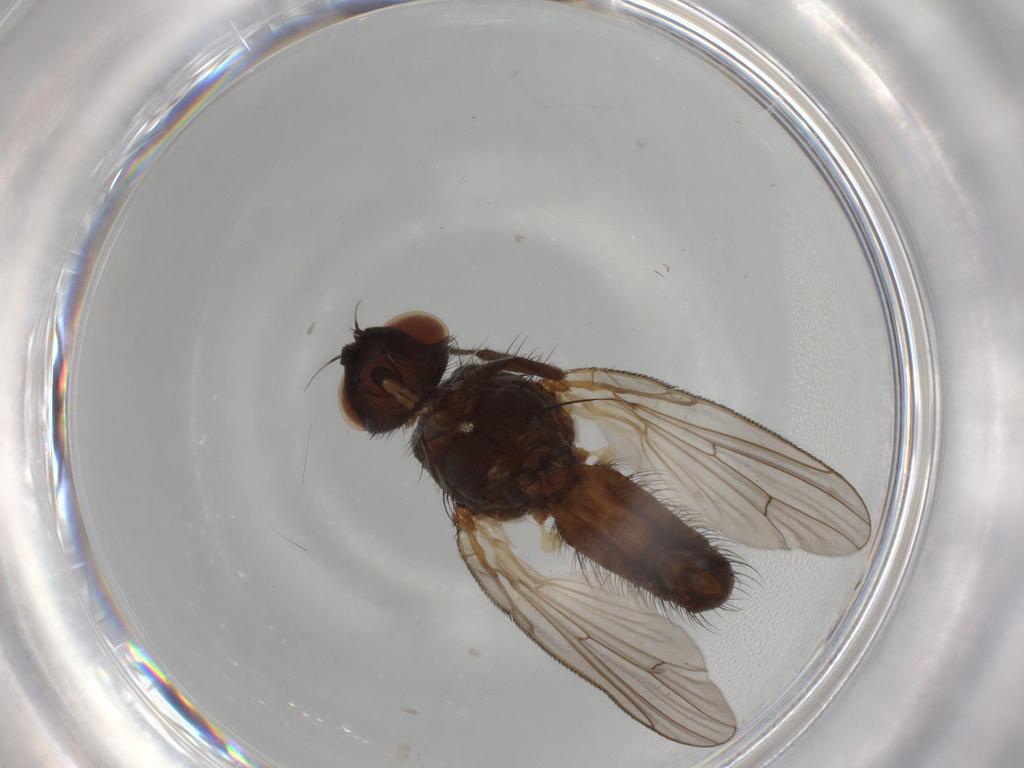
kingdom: Animalia
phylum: Arthropoda
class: Insecta
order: Diptera
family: Anthomyiidae
